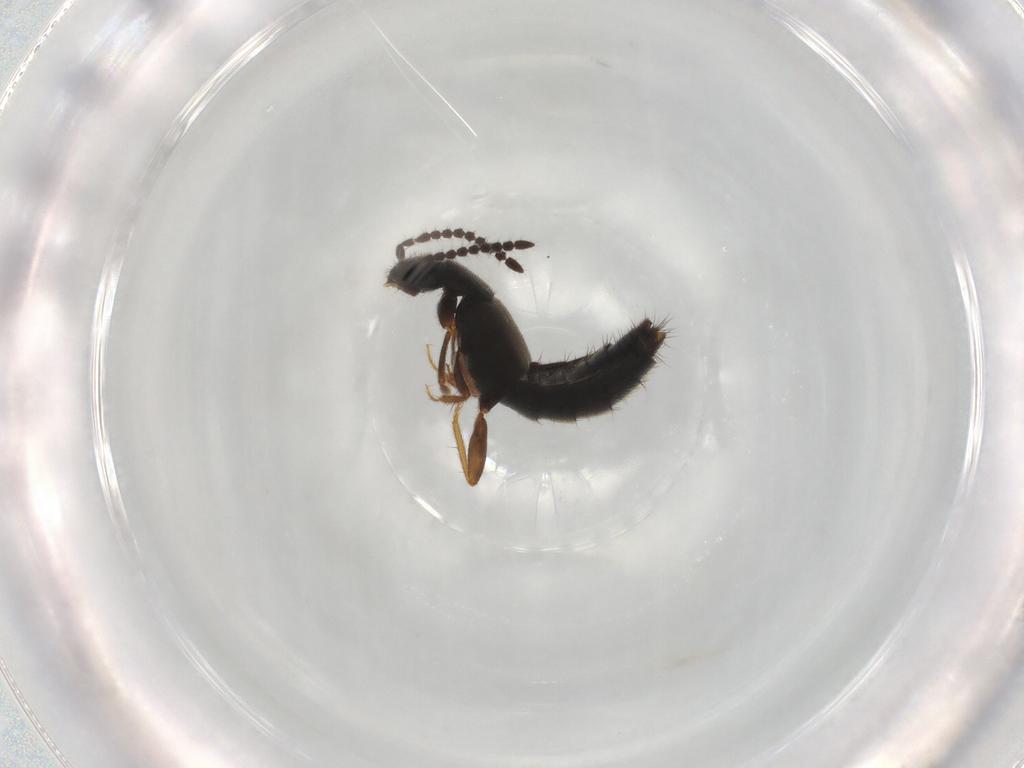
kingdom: Animalia
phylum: Arthropoda
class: Insecta
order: Coleoptera
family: Staphylinidae
